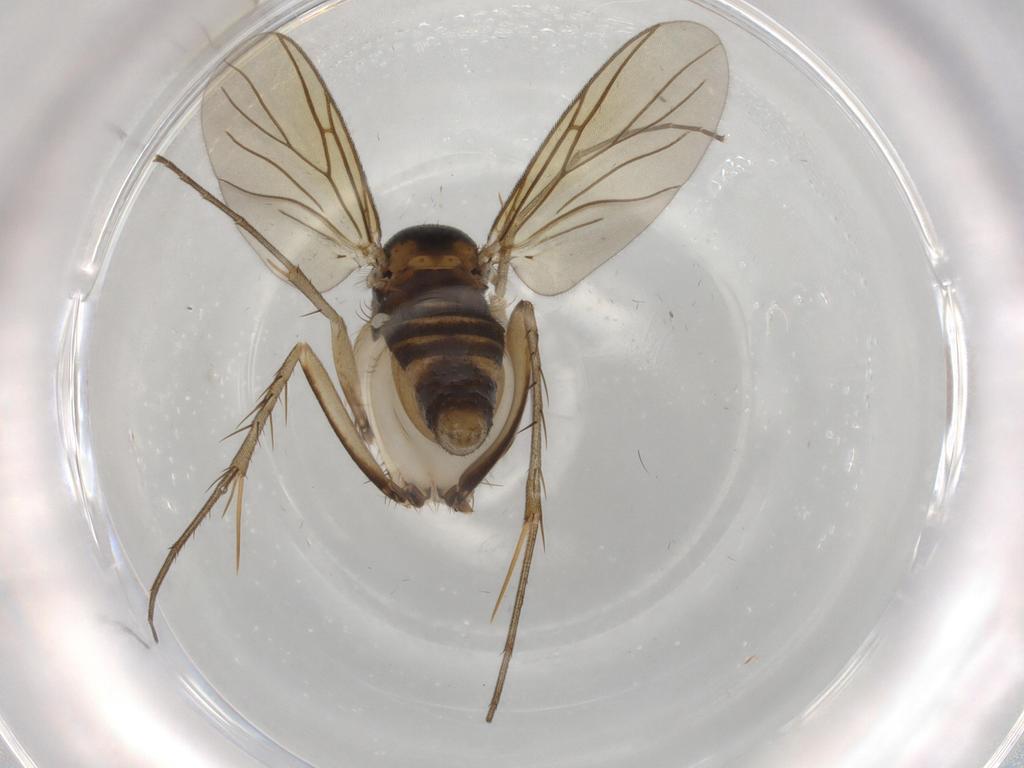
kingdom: Animalia
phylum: Arthropoda
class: Insecta
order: Diptera
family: Mycetophilidae
